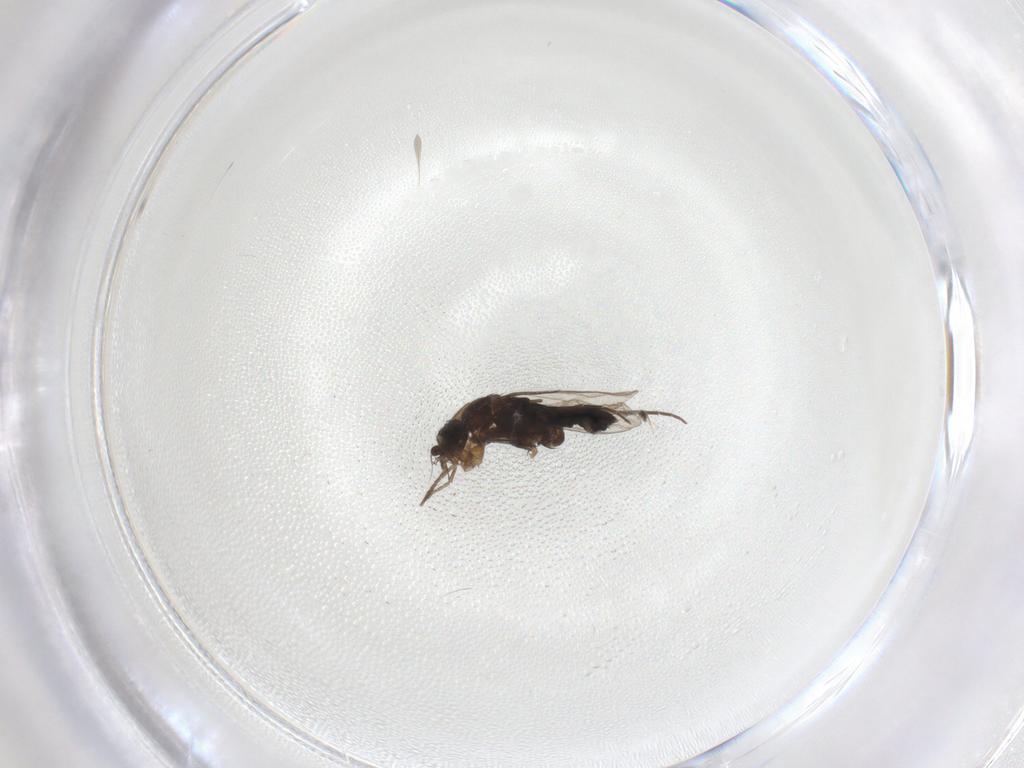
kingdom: Animalia
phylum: Arthropoda
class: Insecta
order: Diptera
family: Sciaridae
